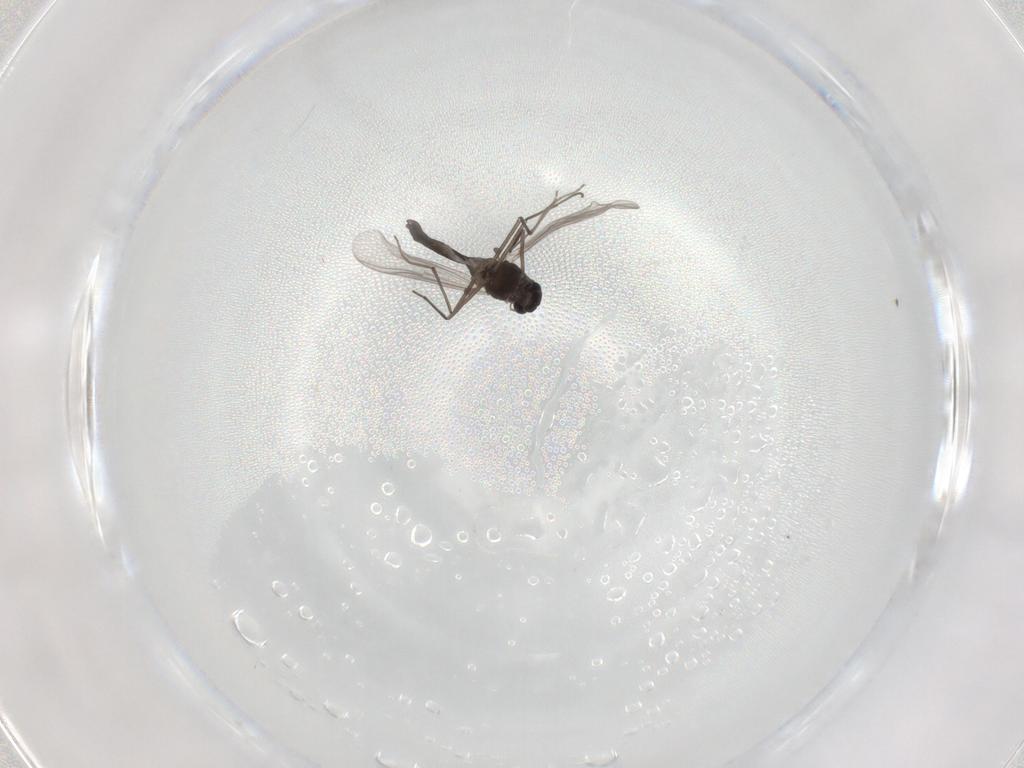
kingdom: Animalia
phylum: Arthropoda
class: Insecta
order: Diptera
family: Chironomidae
